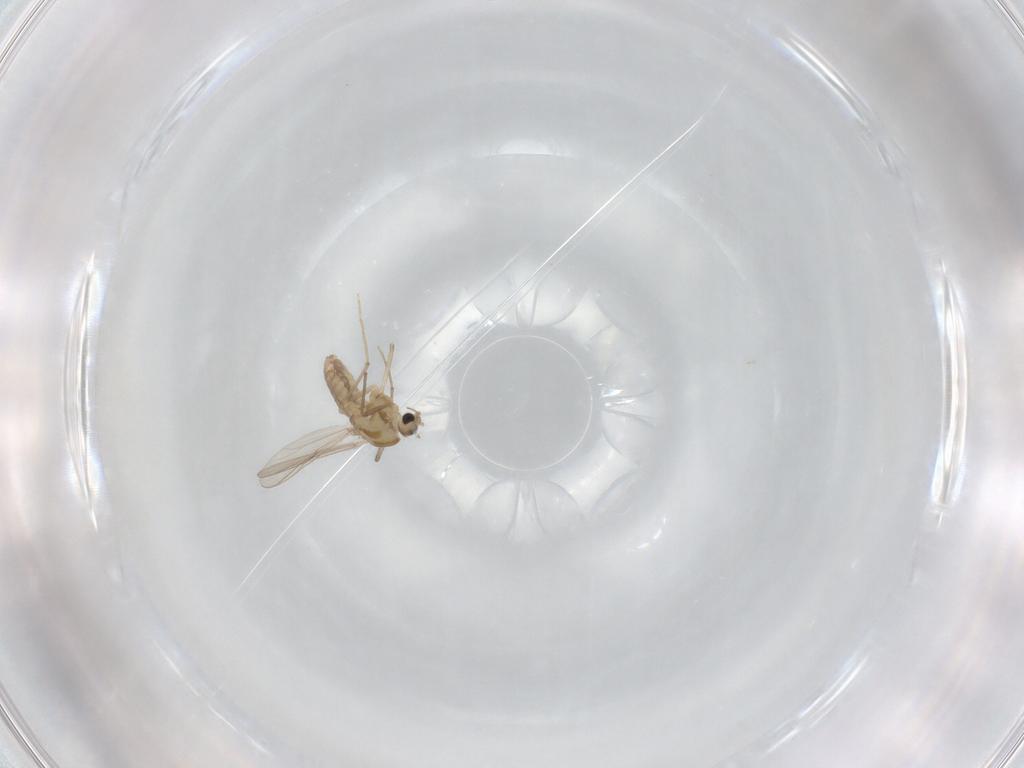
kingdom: Animalia
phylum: Arthropoda
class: Insecta
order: Diptera
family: Chironomidae
